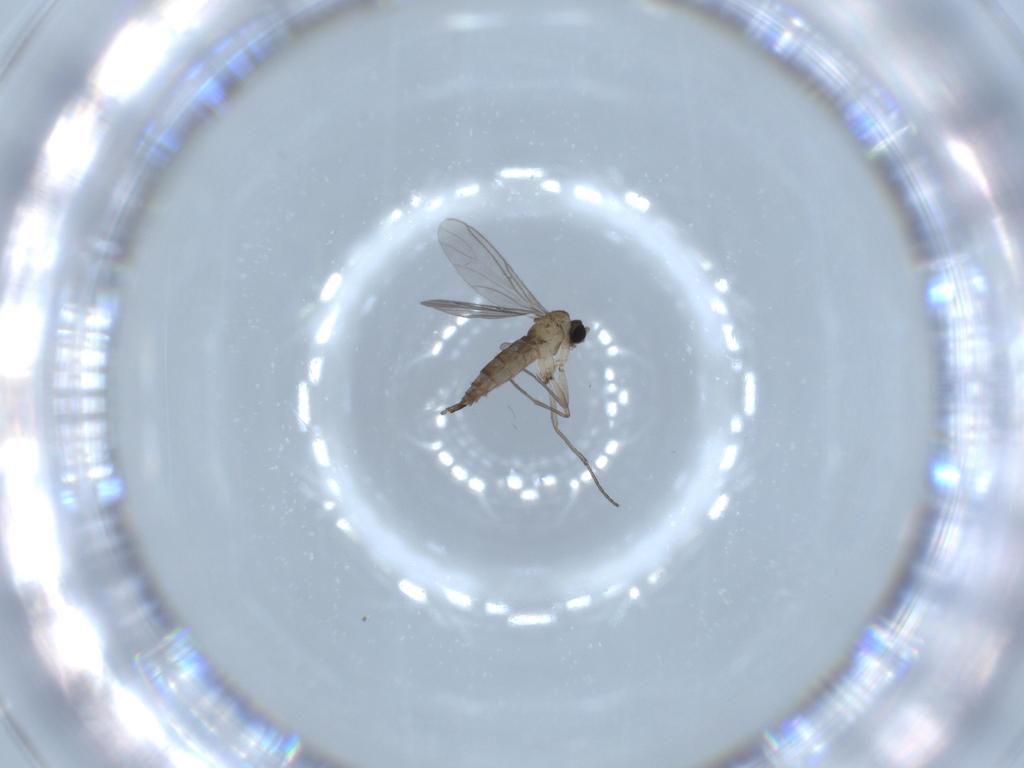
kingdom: Animalia
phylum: Arthropoda
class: Insecta
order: Diptera
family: Sciaridae
